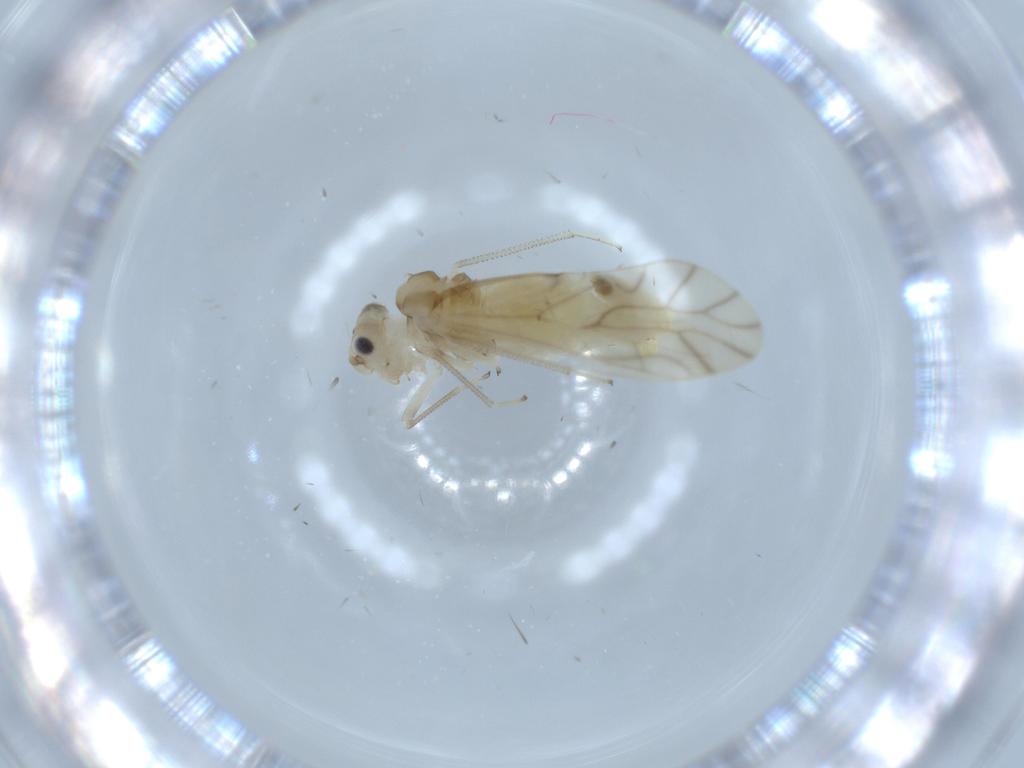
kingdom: Animalia
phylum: Arthropoda
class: Insecta
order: Psocodea
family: Caeciliusidae
